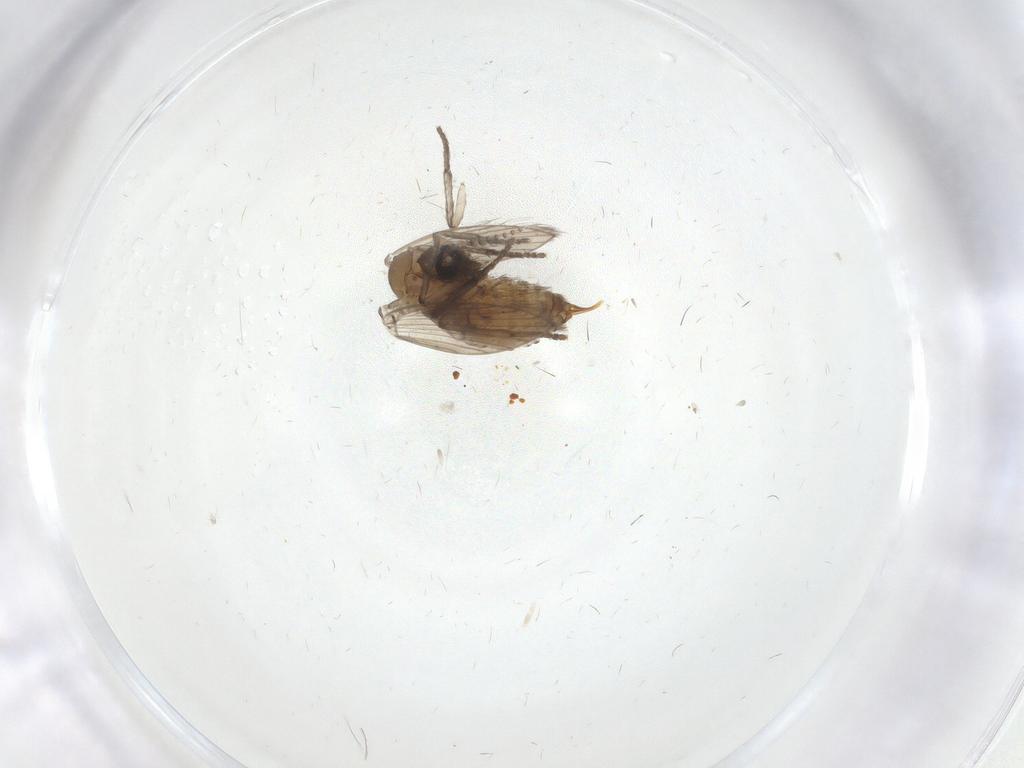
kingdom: Animalia
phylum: Arthropoda
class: Insecta
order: Diptera
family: Psychodidae
